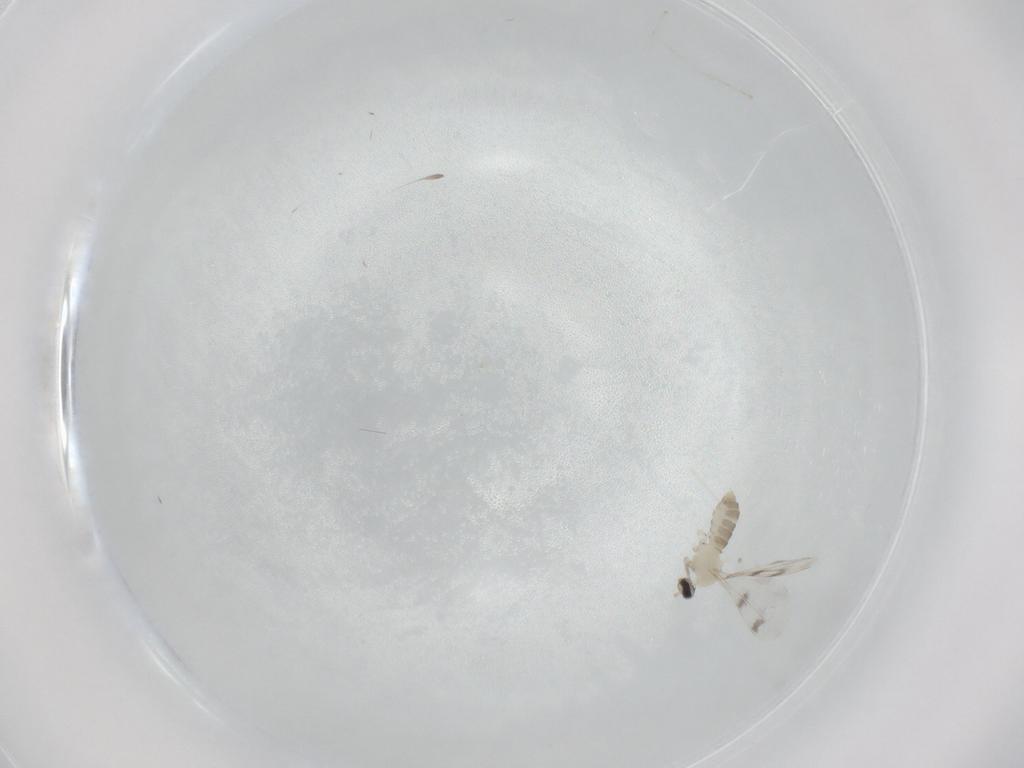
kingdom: Animalia
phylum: Arthropoda
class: Insecta
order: Diptera
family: Cecidomyiidae
